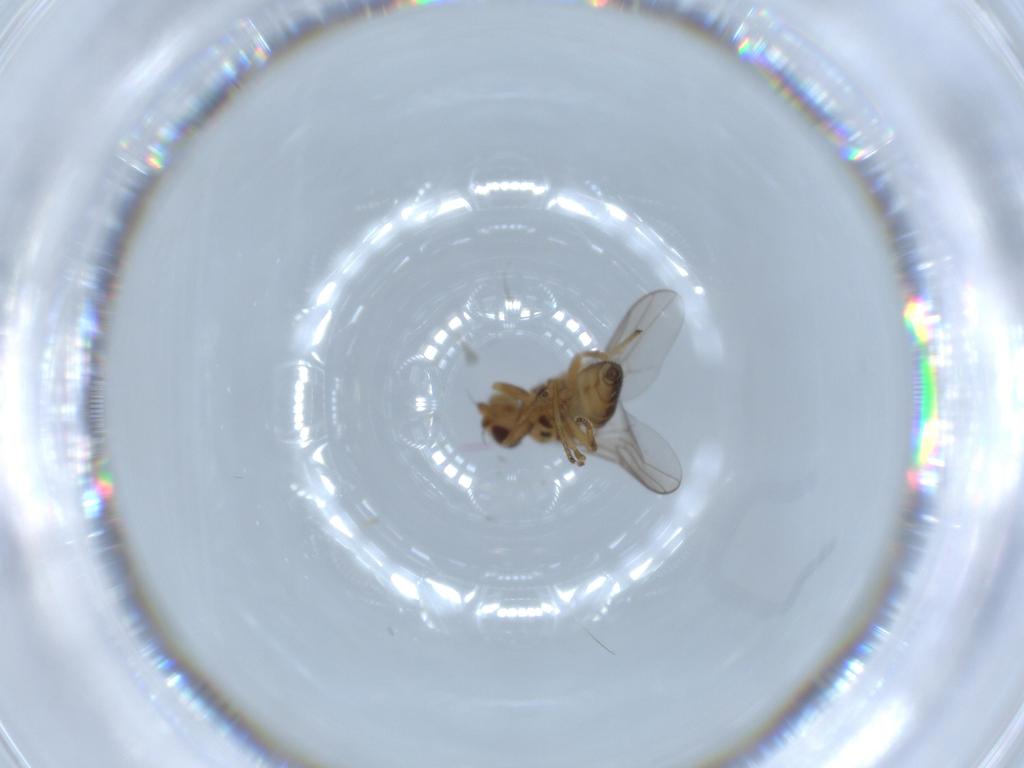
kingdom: Animalia
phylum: Arthropoda
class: Insecta
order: Diptera
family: Chloropidae
